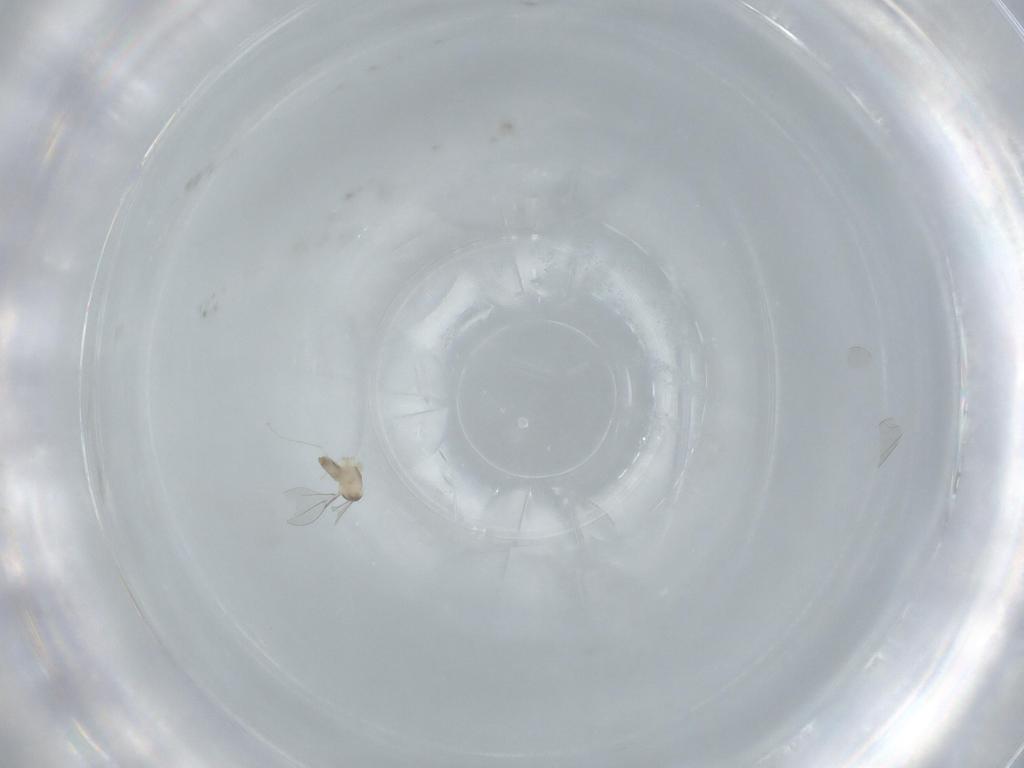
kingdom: Animalia
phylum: Arthropoda
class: Insecta
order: Diptera
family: Cecidomyiidae
